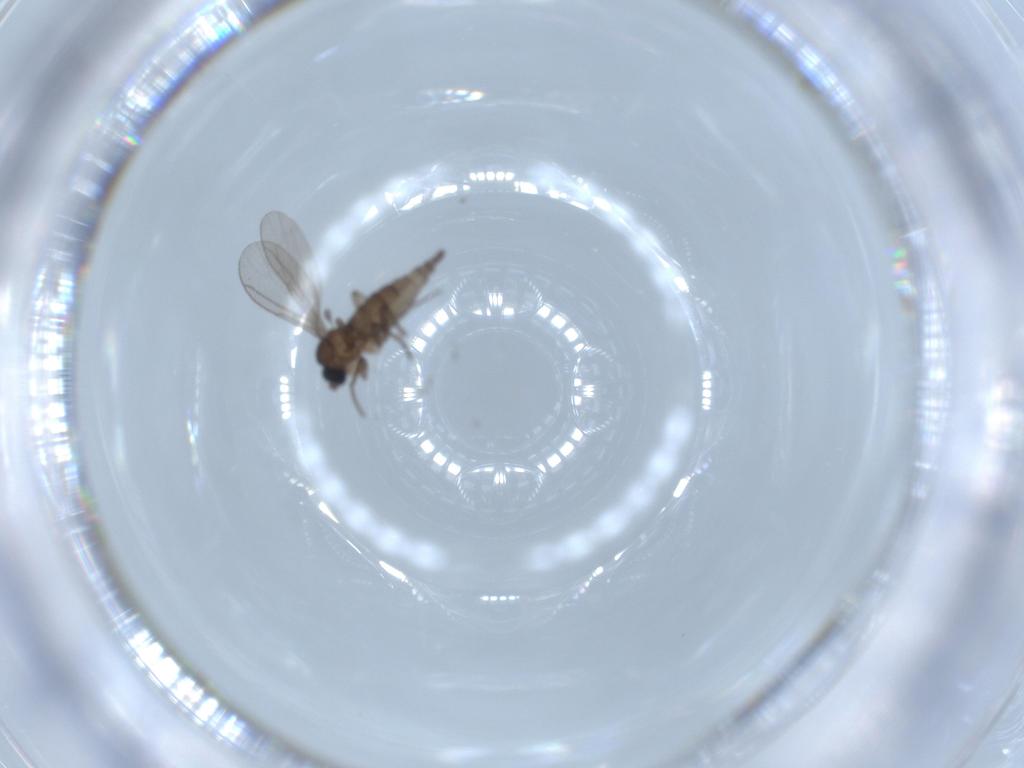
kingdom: Animalia
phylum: Arthropoda
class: Insecta
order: Diptera
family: Cecidomyiidae
